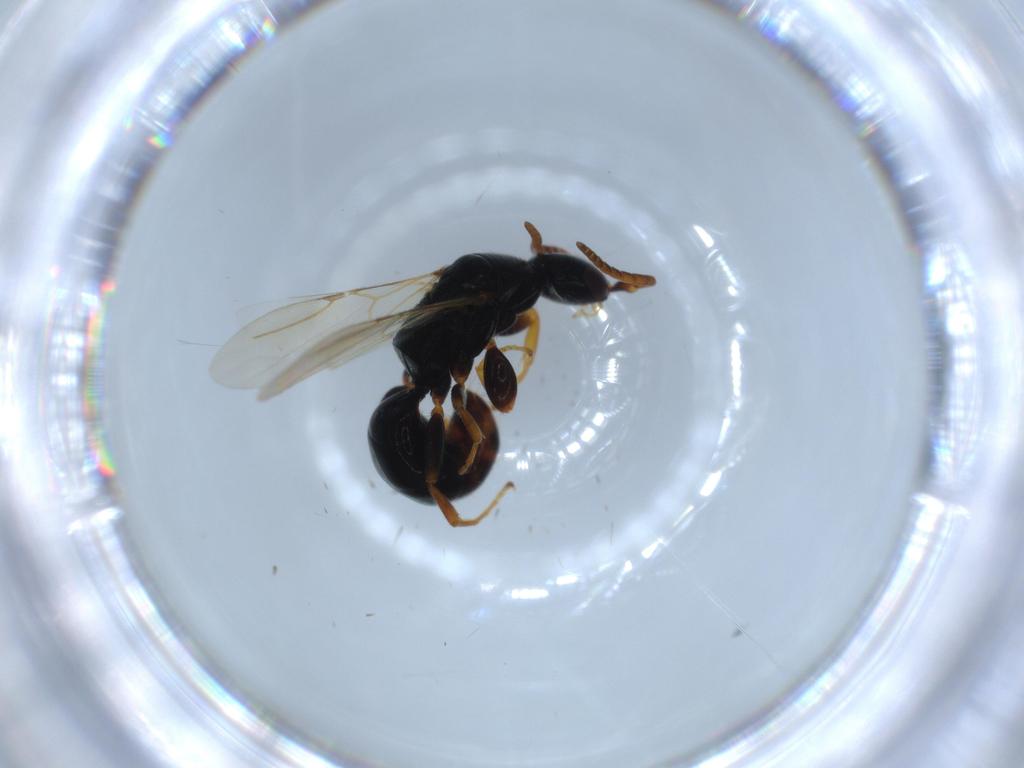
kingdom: Animalia
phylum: Arthropoda
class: Insecta
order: Hymenoptera
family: Bethylidae
